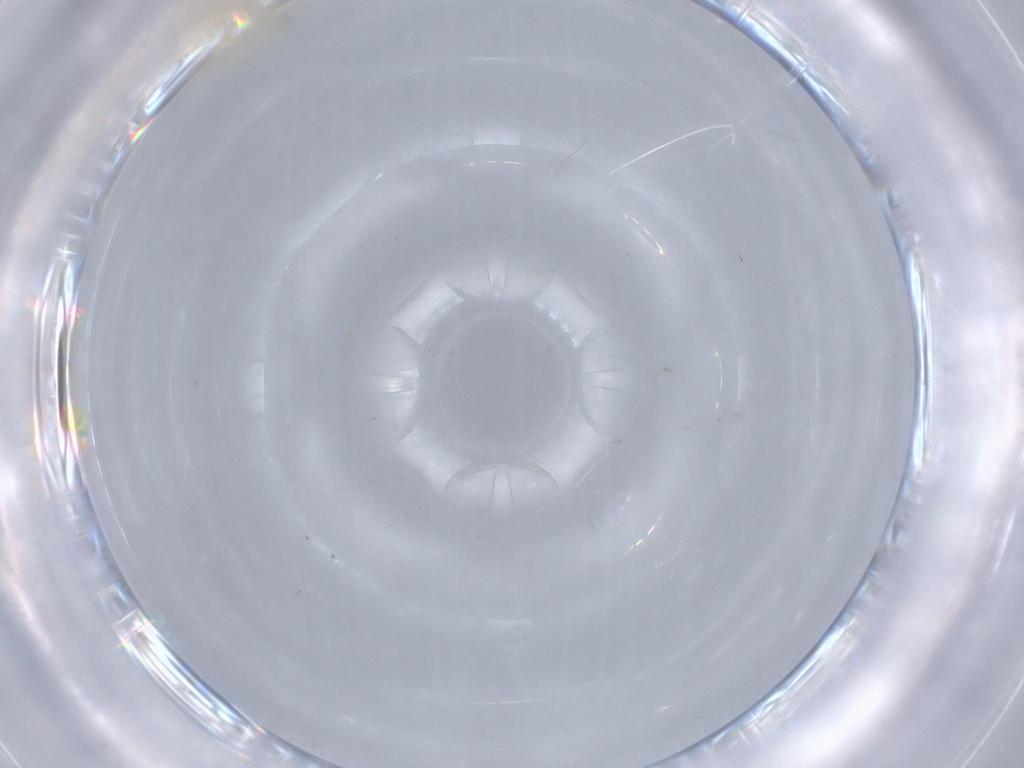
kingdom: Animalia
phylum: Arthropoda
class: Insecta
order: Diptera
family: Cecidomyiidae
